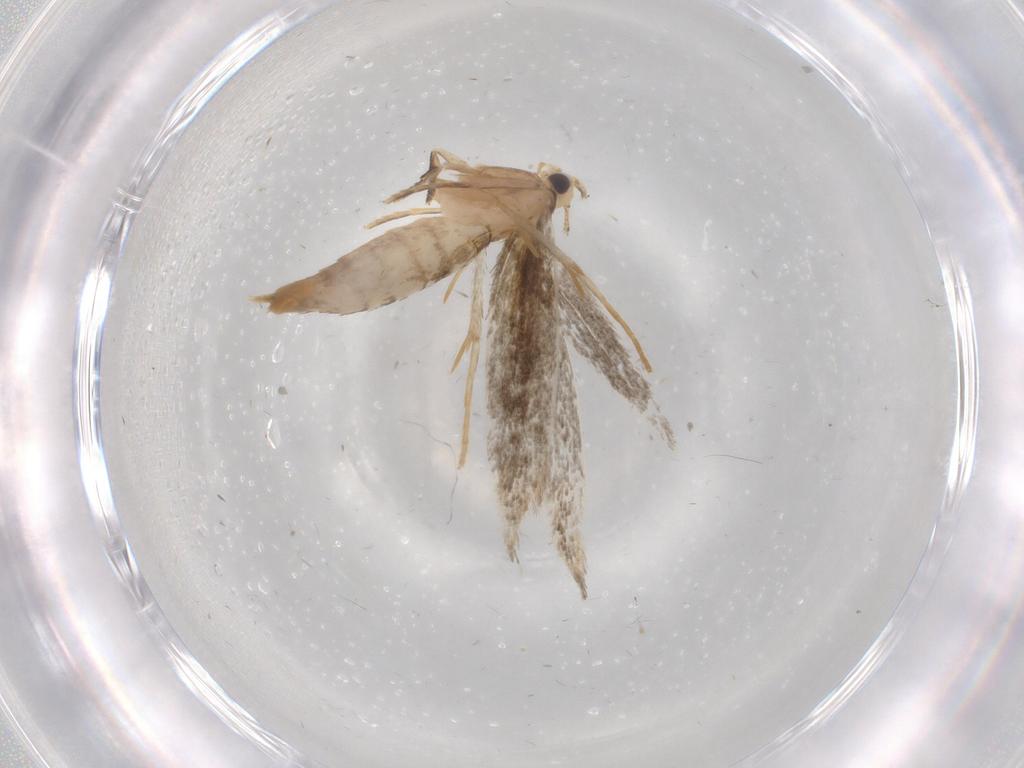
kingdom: Animalia
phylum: Arthropoda
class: Insecta
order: Lepidoptera
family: Tineidae
